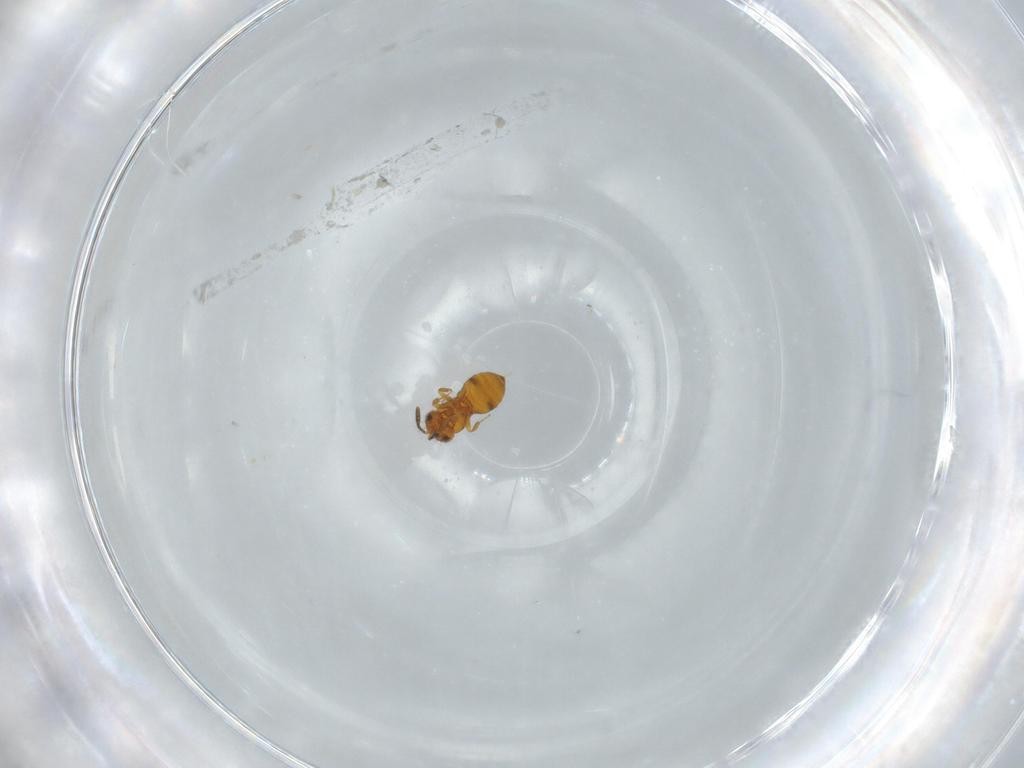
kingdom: Animalia
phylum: Arthropoda
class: Insecta
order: Hymenoptera
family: Scelionidae
